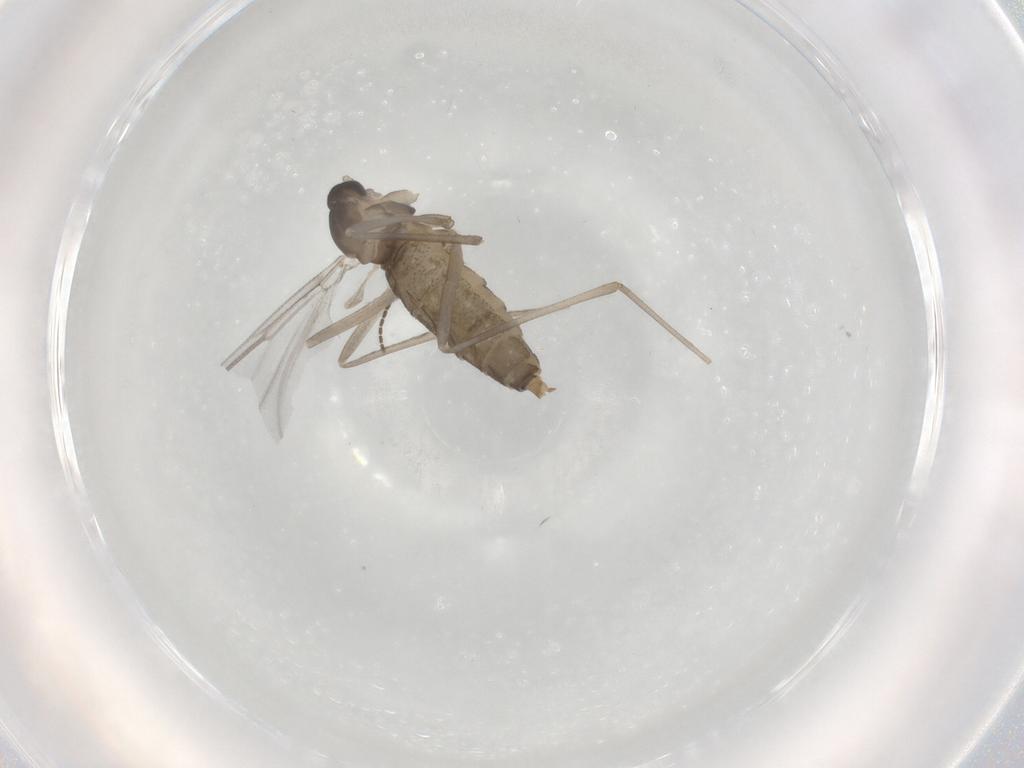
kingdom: Animalia
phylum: Arthropoda
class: Insecta
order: Diptera
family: Sciaridae
